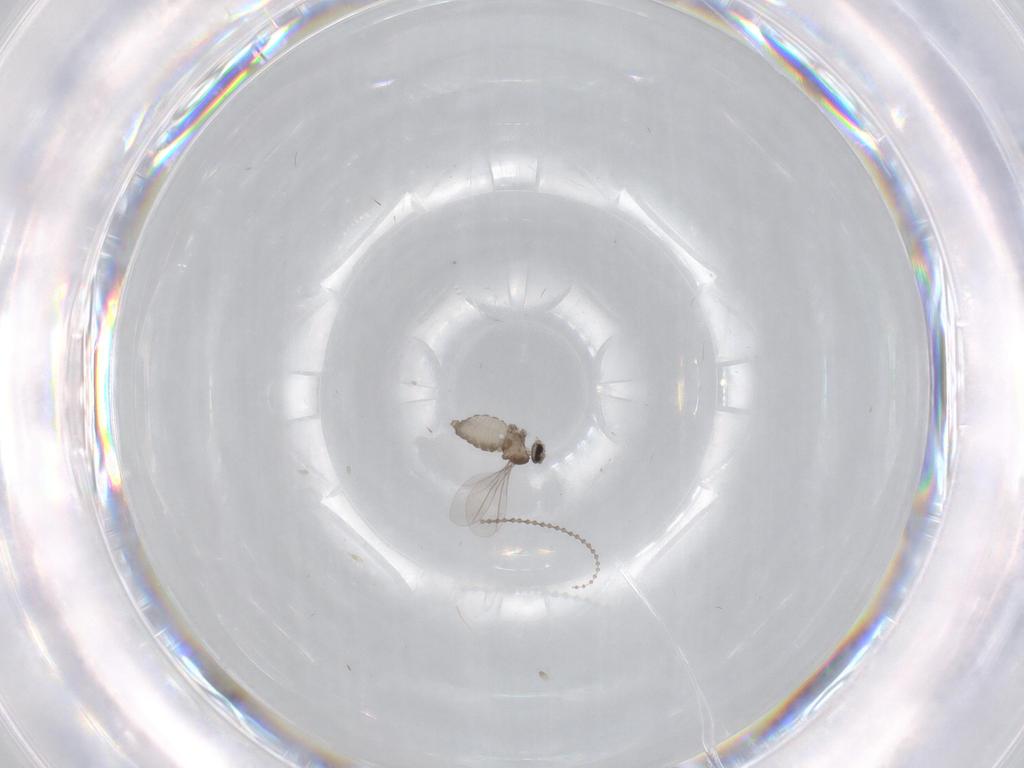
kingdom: Animalia
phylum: Arthropoda
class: Insecta
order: Diptera
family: Cecidomyiidae
